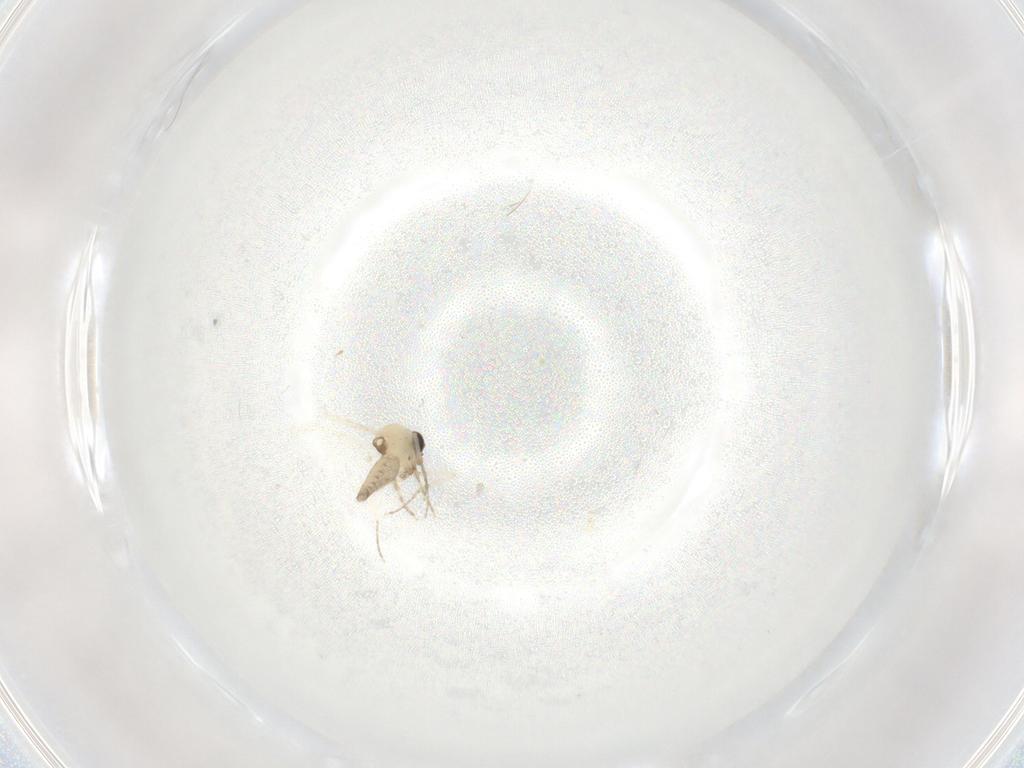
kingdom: Animalia
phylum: Arthropoda
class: Insecta
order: Diptera
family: Ceratopogonidae
